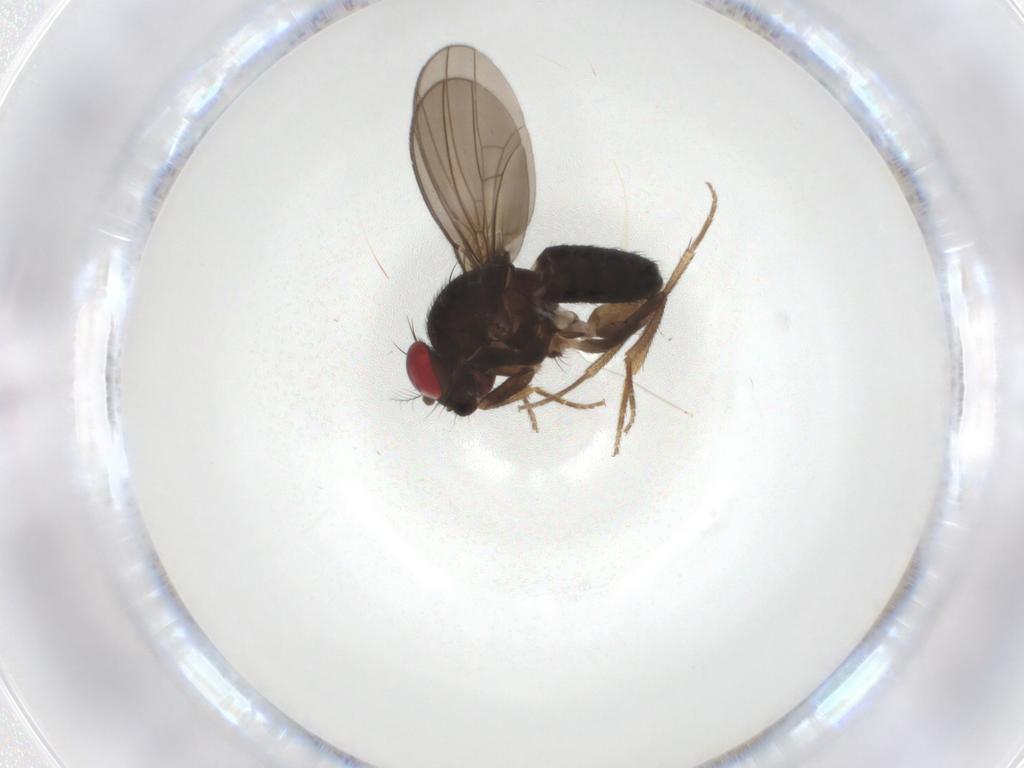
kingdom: Animalia
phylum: Arthropoda
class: Insecta
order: Diptera
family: Drosophilidae
